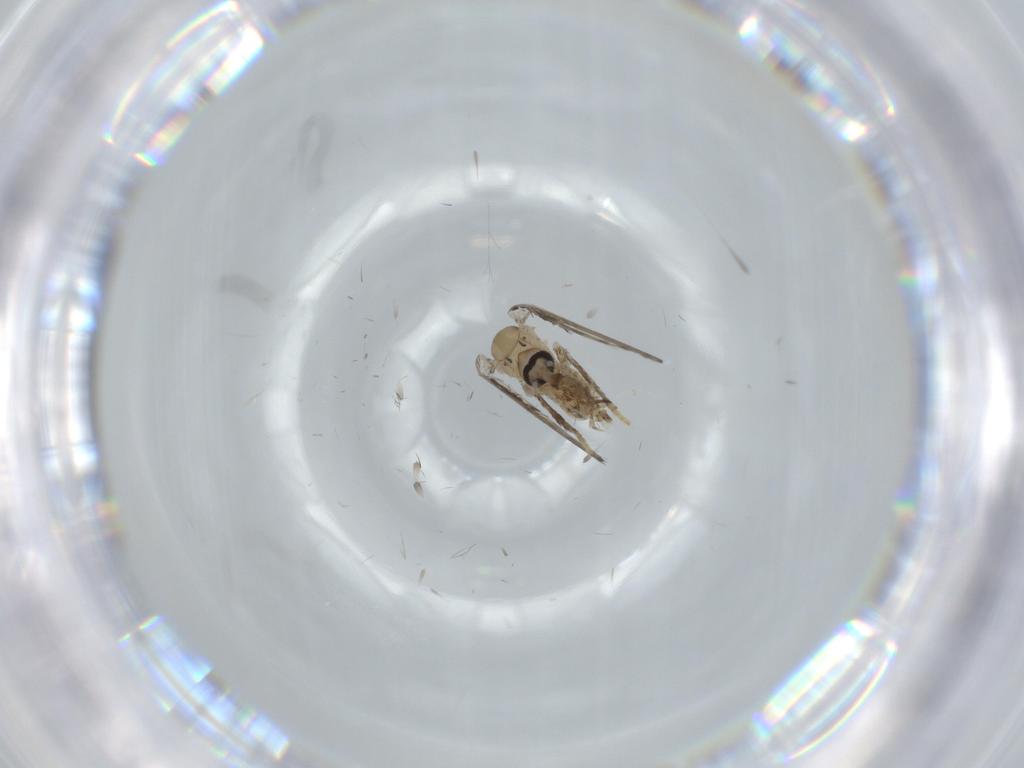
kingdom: Animalia
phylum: Arthropoda
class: Insecta
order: Diptera
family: Psychodidae
